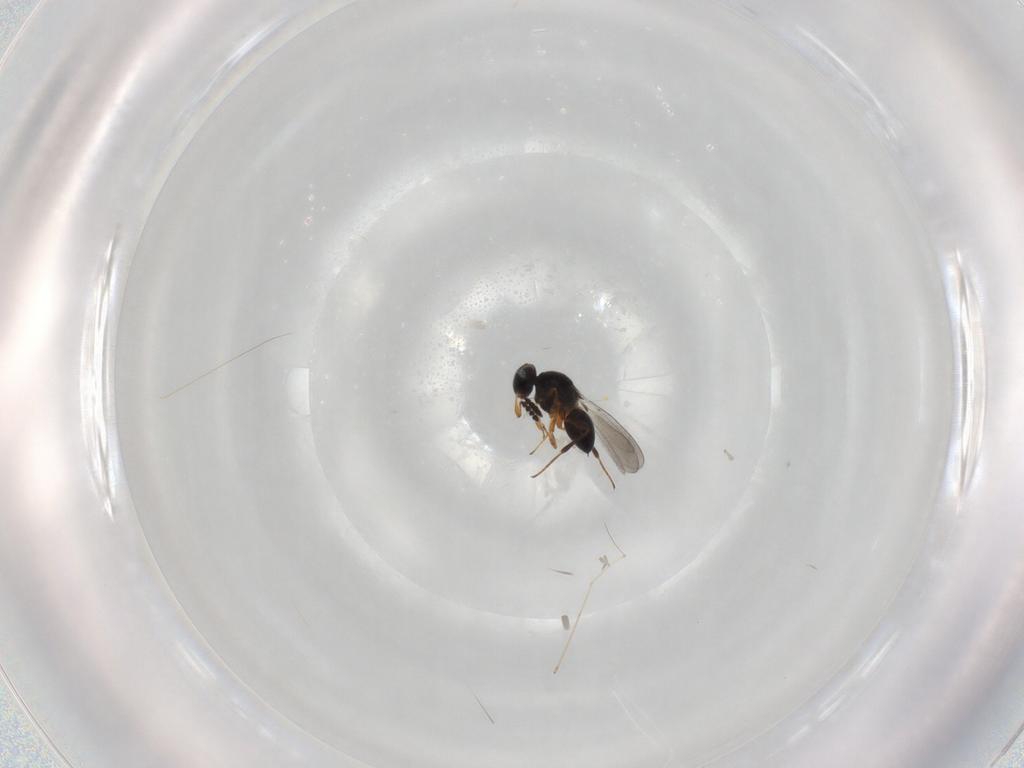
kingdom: Animalia
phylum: Arthropoda
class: Insecta
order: Hymenoptera
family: Platygastridae
